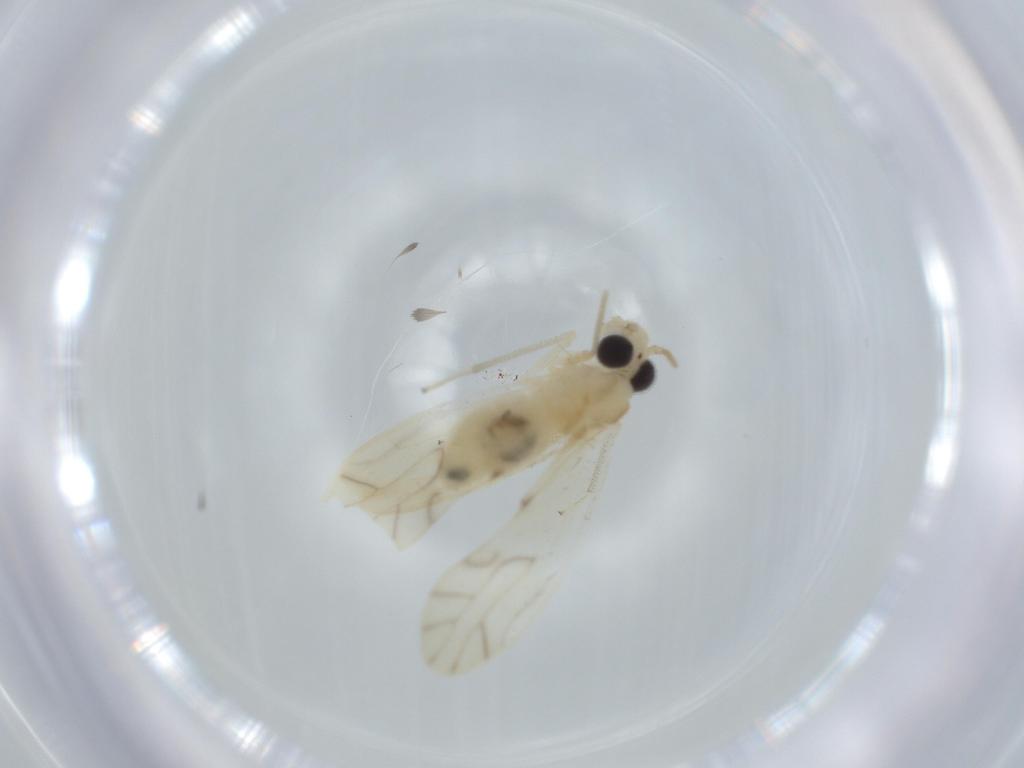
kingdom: Animalia
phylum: Arthropoda
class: Insecta
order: Psocodea
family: Liposcelididae
